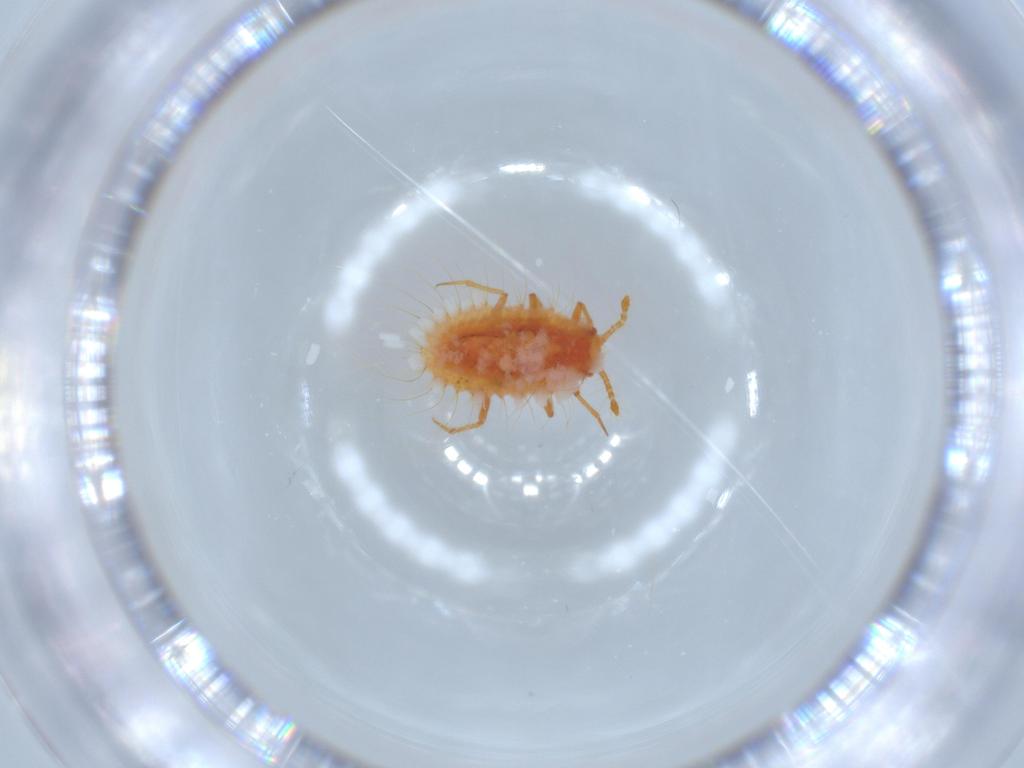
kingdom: Animalia
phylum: Arthropoda
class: Insecta
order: Hemiptera
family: Coccoidea_incertae_sedis
